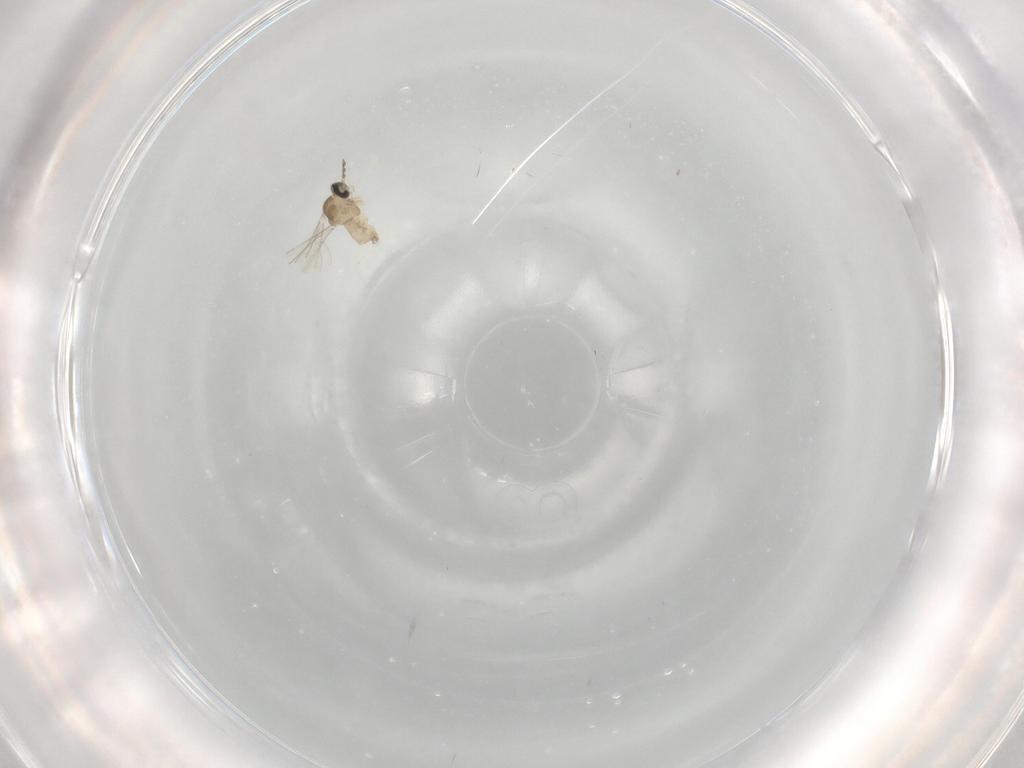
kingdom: Animalia
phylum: Arthropoda
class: Insecta
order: Diptera
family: Cecidomyiidae
